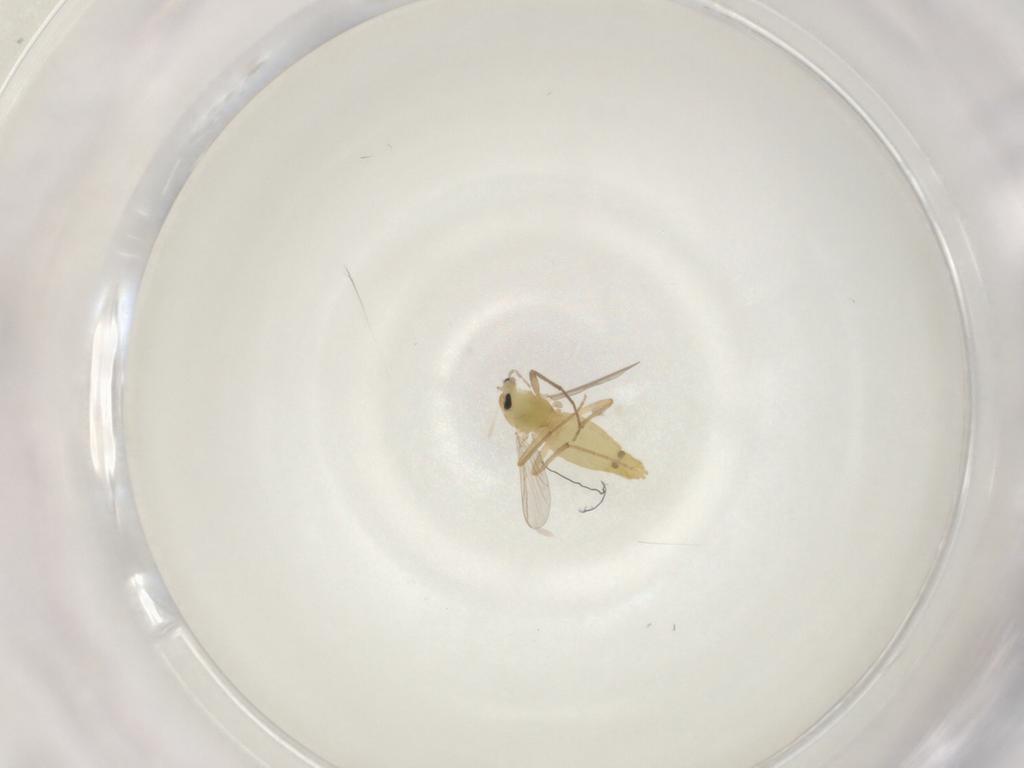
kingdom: Animalia
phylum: Arthropoda
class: Insecta
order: Diptera
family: Chironomidae
